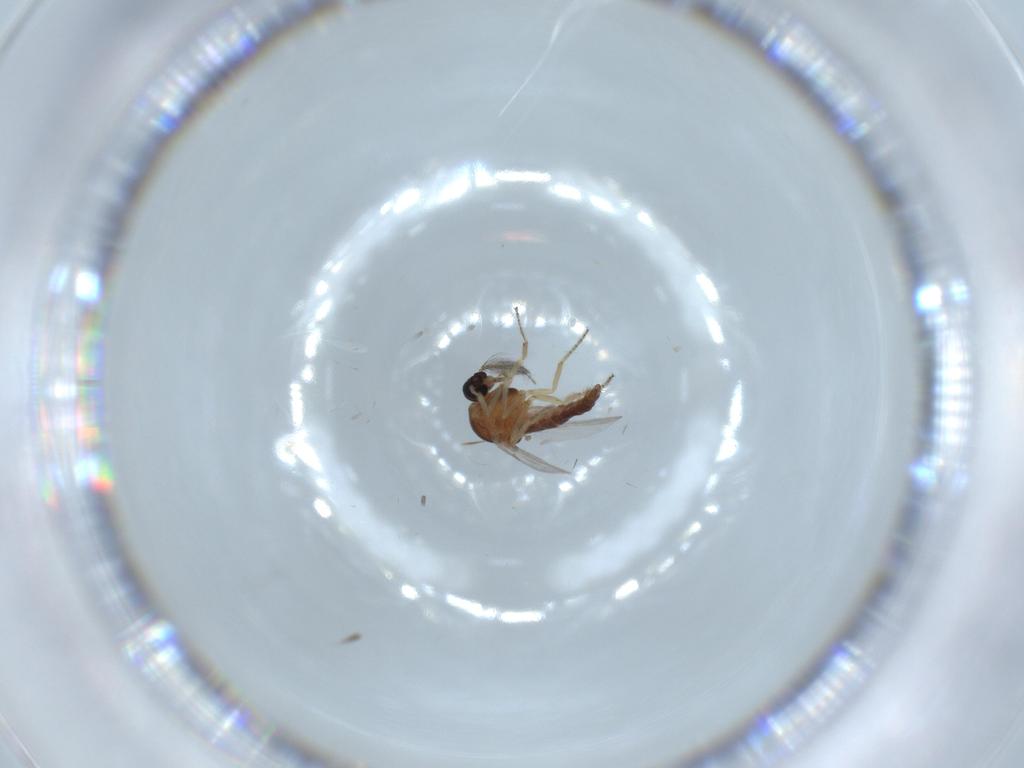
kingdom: Animalia
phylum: Arthropoda
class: Insecta
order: Diptera
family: Ceratopogonidae
